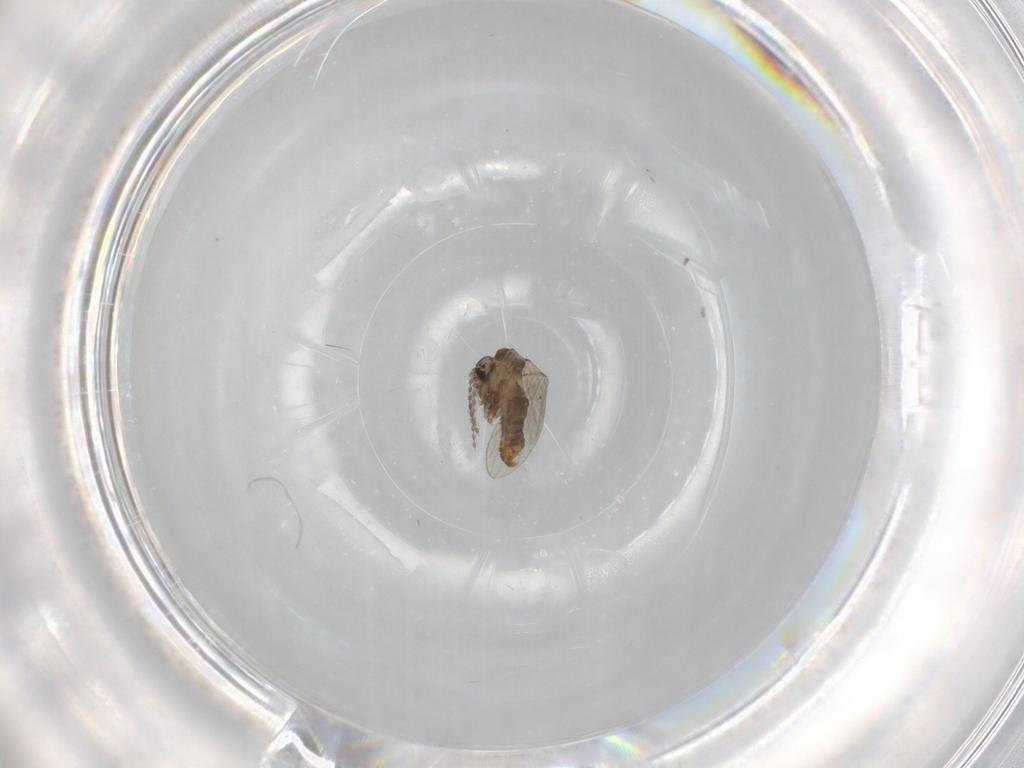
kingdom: Animalia
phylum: Arthropoda
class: Insecta
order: Diptera
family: Chironomidae
